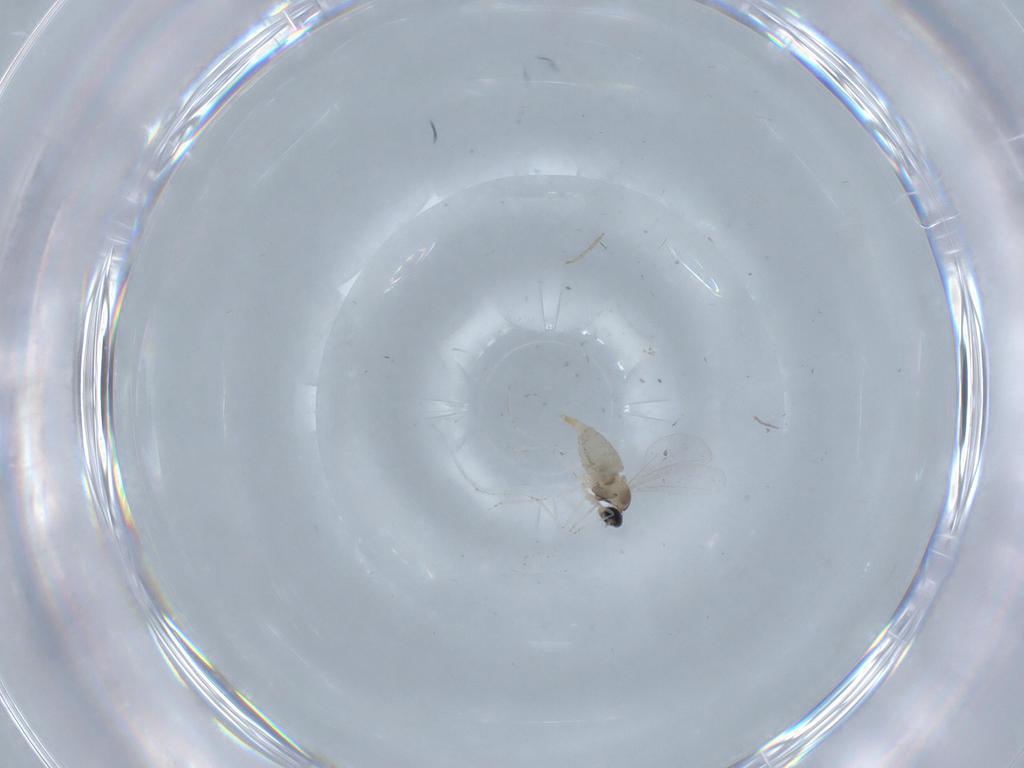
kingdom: Animalia
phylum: Arthropoda
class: Insecta
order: Diptera
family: Cecidomyiidae
